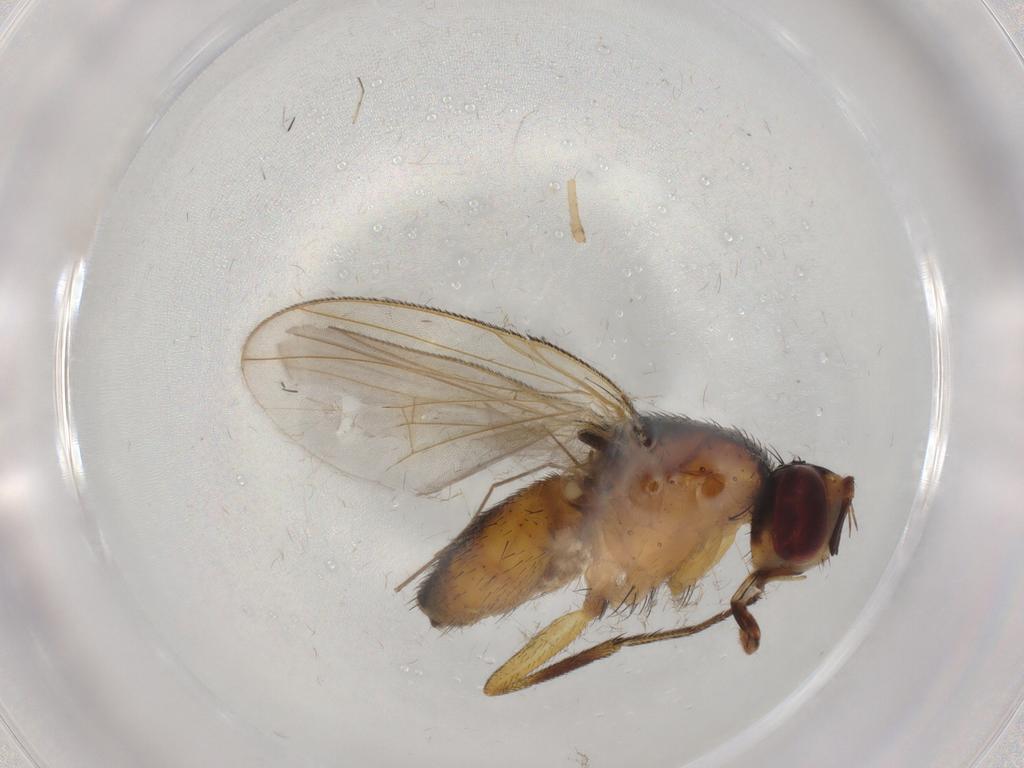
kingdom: Animalia
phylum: Arthropoda
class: Insecta
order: Diptera
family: Muscidae
